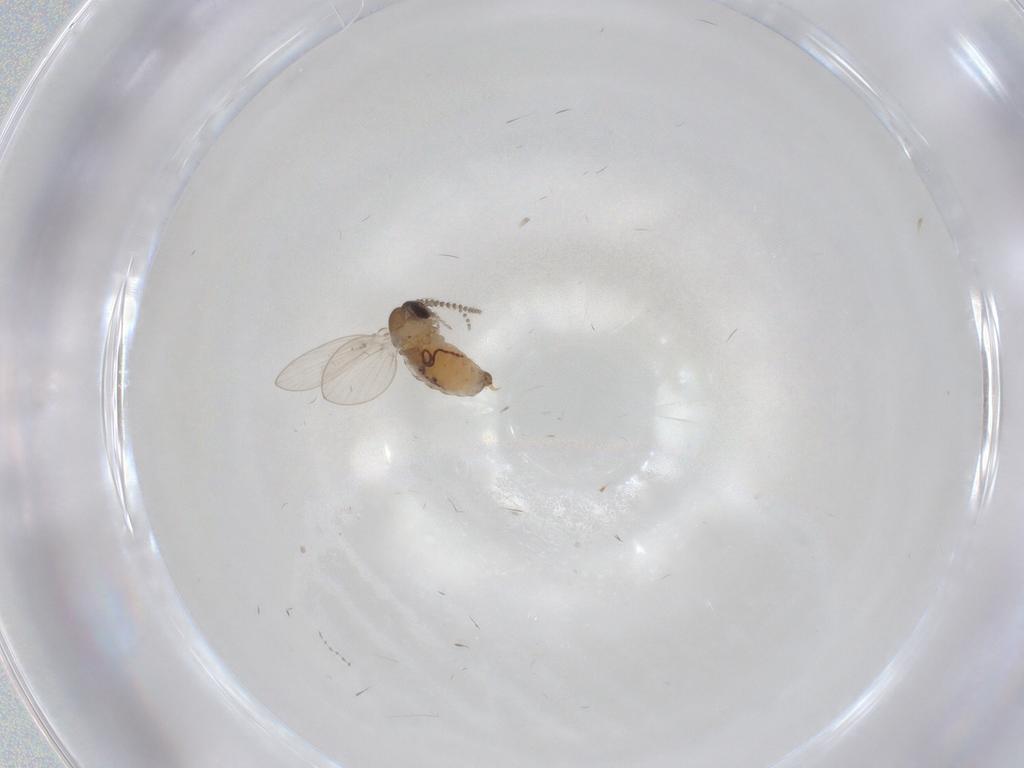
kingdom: Animalia
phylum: Arthropoda
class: Insecta
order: Diptera
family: Psychodidae
